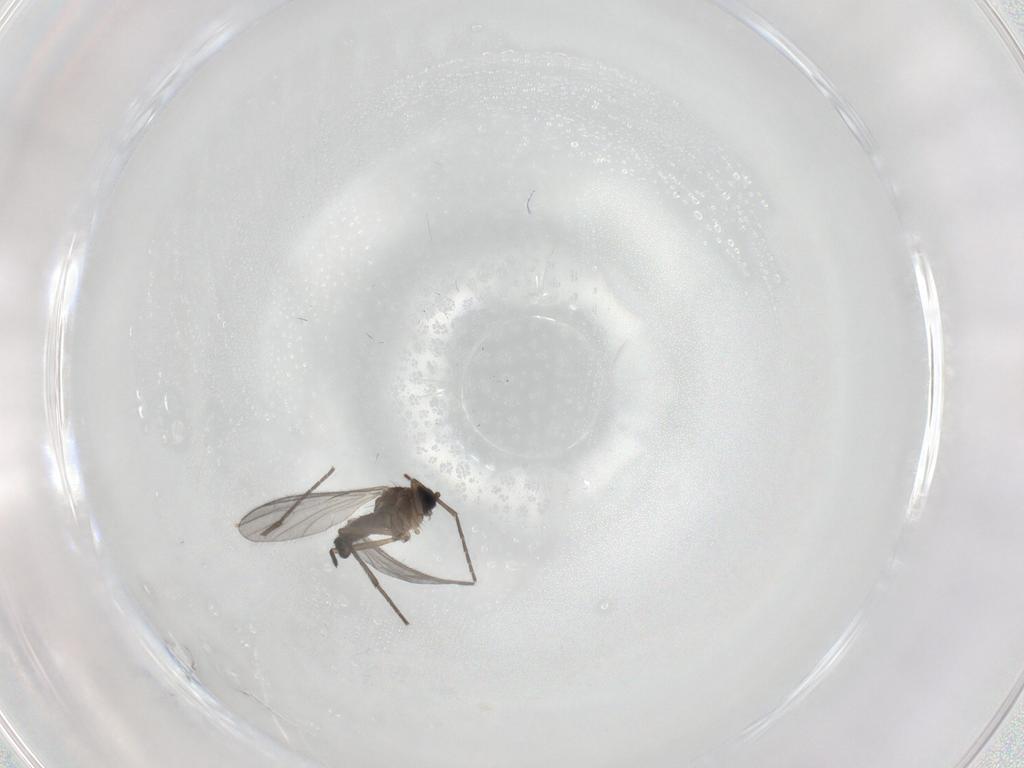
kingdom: Animalia
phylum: Arthropoda
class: Insecta
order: Diptera
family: Sciaridae
